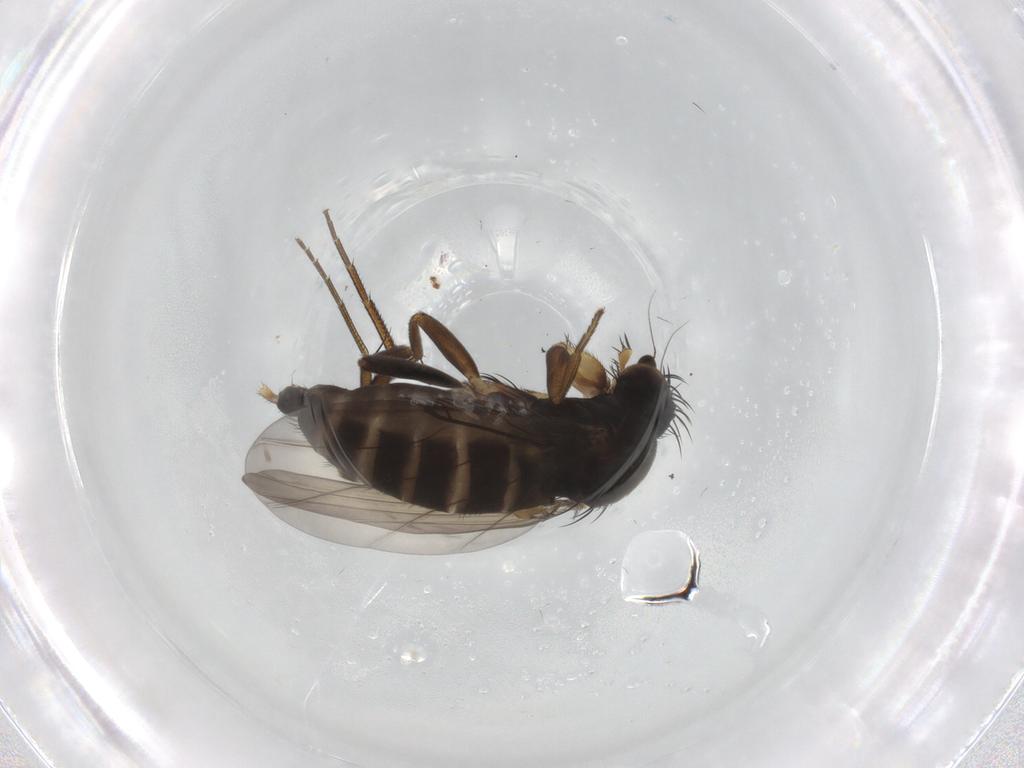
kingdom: Animalia
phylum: Arthropoda
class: Insecta
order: Diptera
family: Phoridae
